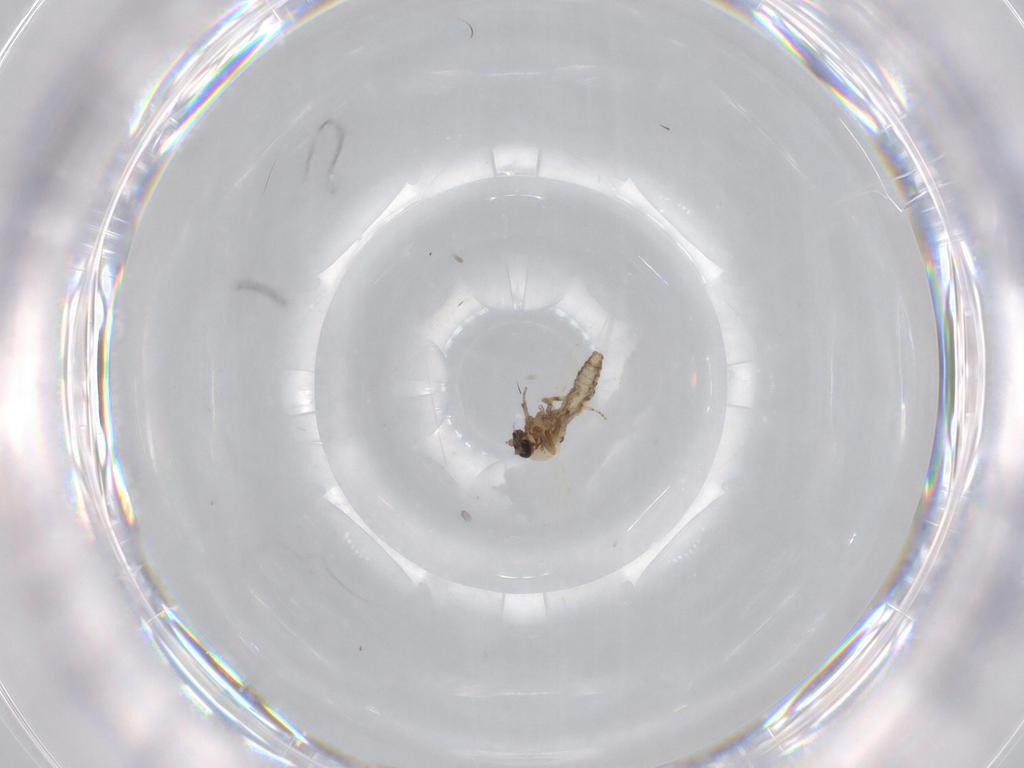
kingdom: Animalia
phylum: Arthropoda
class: Insecta
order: Diptera
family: Ceratopogonidae
